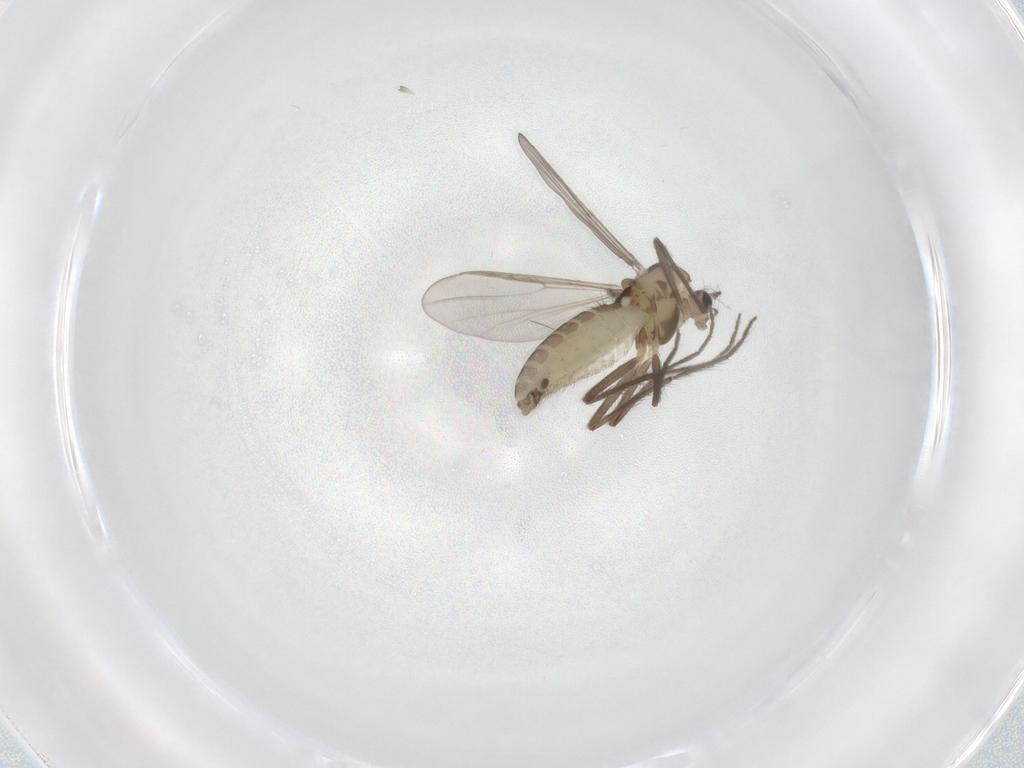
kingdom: Animalia
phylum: Arthropoda
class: Insecta
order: Diptera
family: Chironomidae
